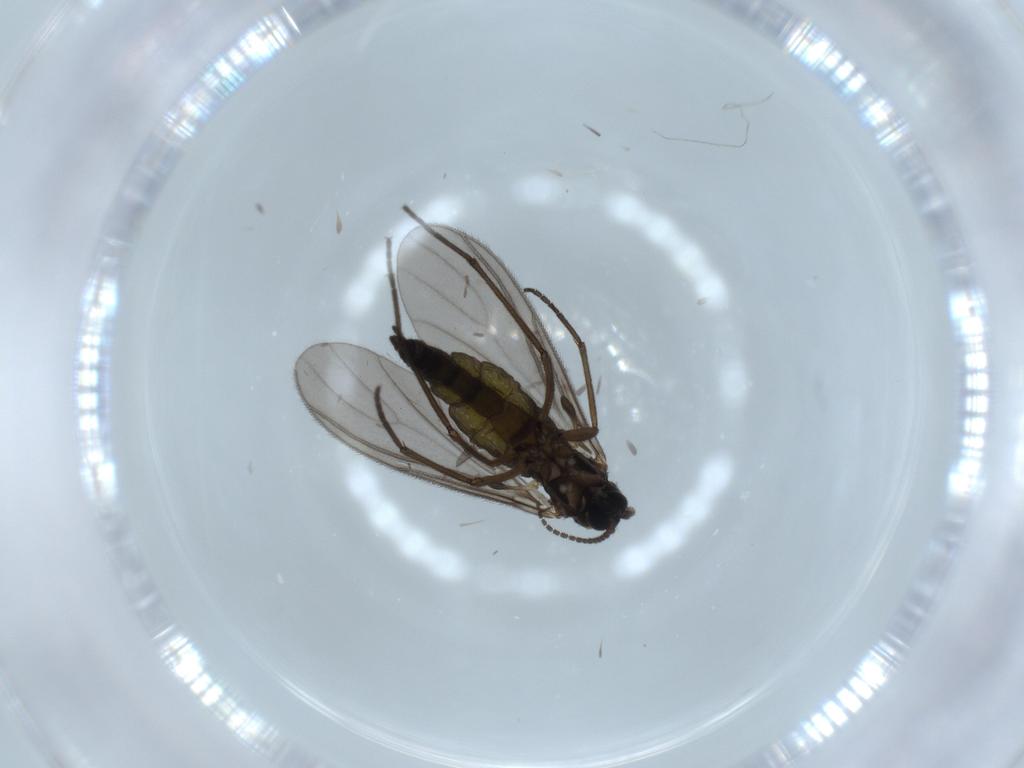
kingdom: Animalia
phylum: Arthropoda
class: Insecta
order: Diptera
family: Sciaridae
